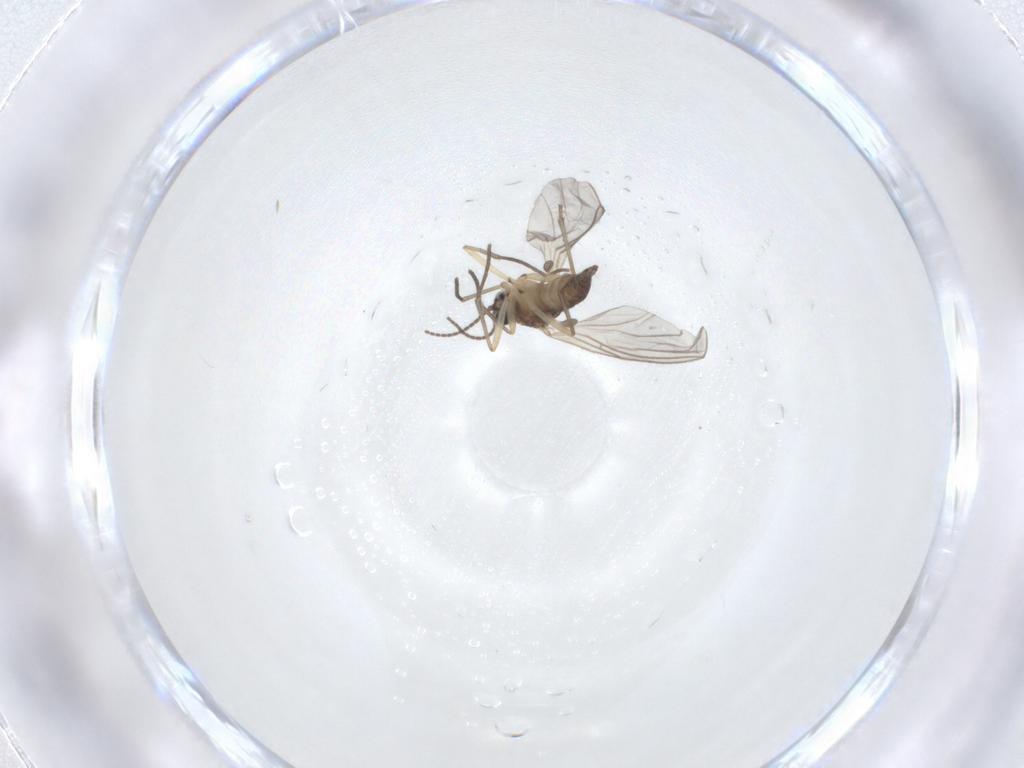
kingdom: Animalia
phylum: Arthropoda
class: Insecta
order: Diptera
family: Sciaridae
